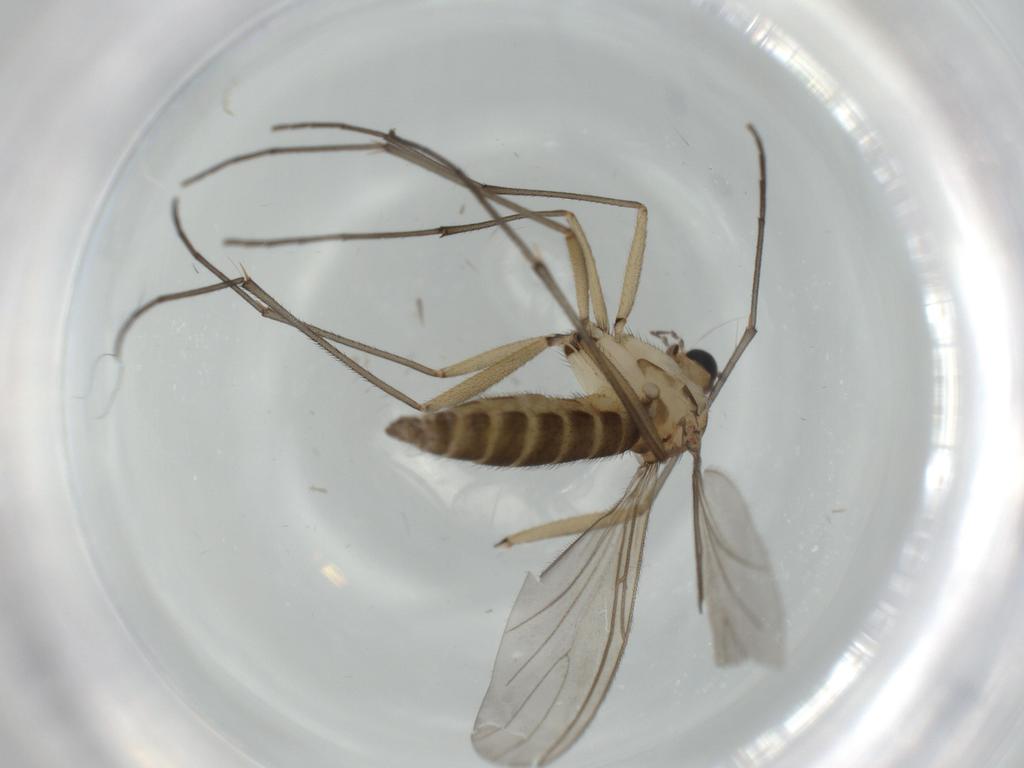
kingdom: Animalia
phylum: Arthropoda
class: Insecta
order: Diptera
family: Sciaridae
